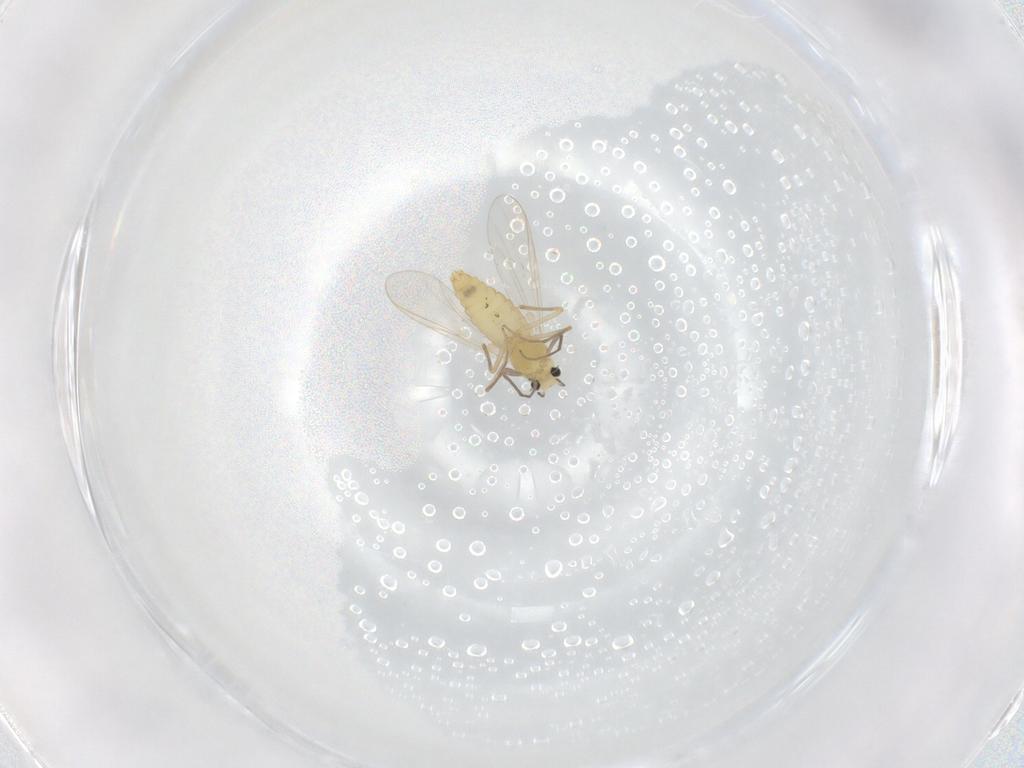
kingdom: Animalia
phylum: Arthropoda
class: Insecta
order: Diptera
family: Chironomidae
